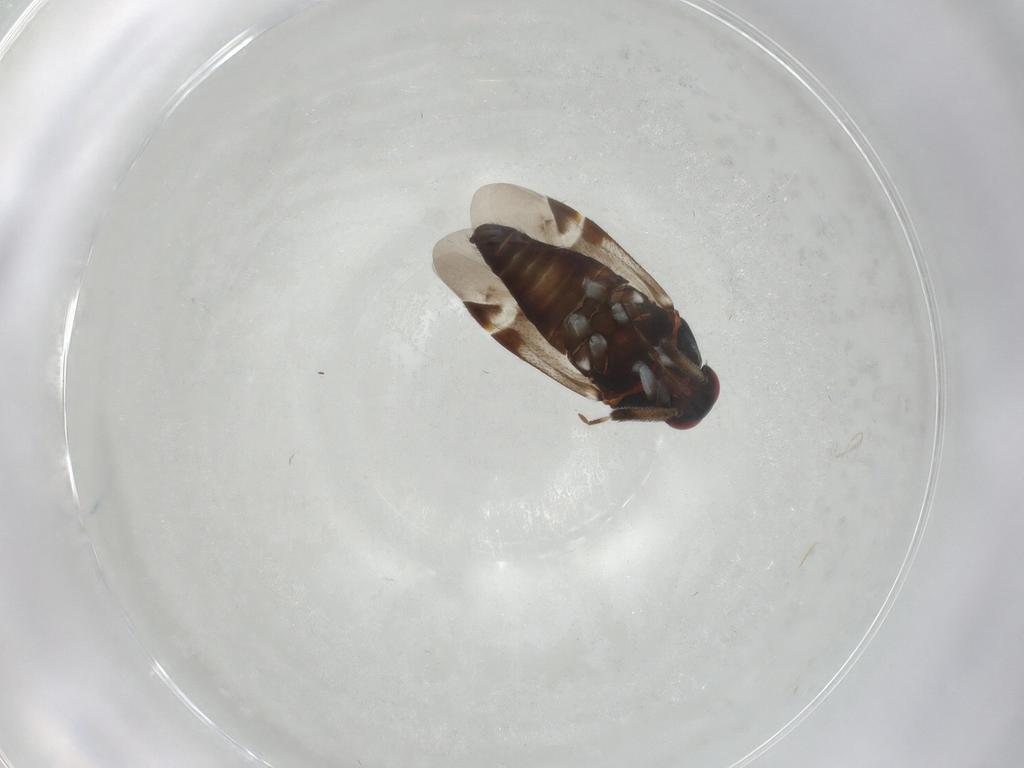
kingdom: Animalia
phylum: Arthropoda
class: Insecta
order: Hemiptera
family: Miridae
